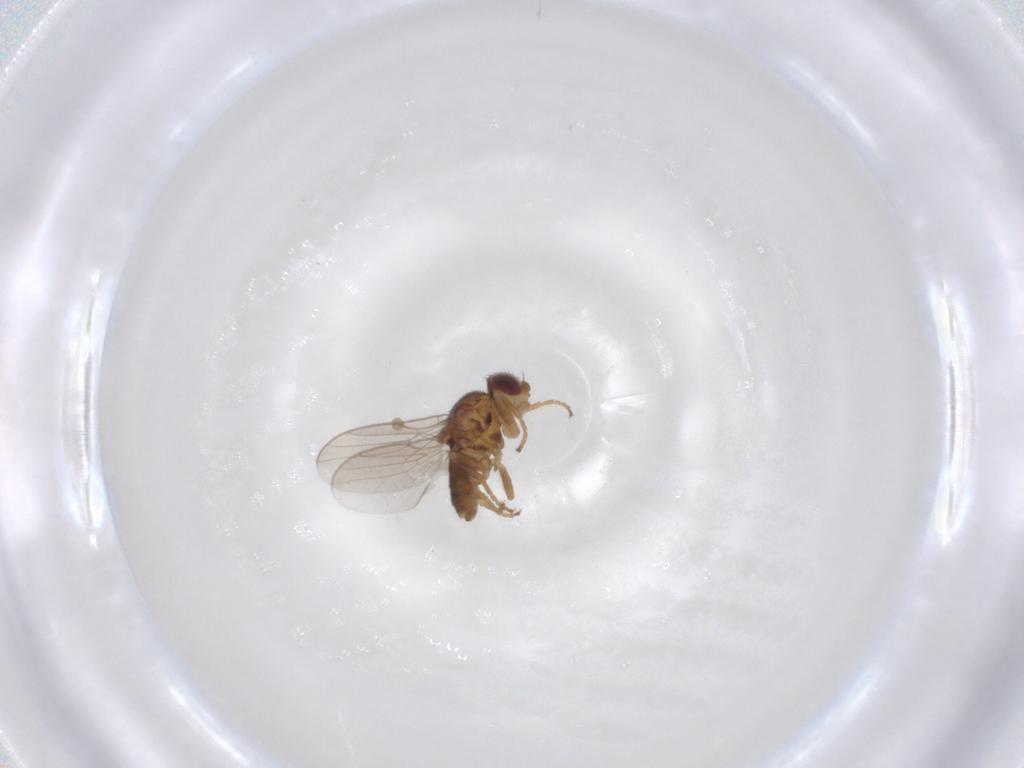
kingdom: Animalia
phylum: Arthropoda
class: Insecta
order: Diptera
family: Chloropidae
